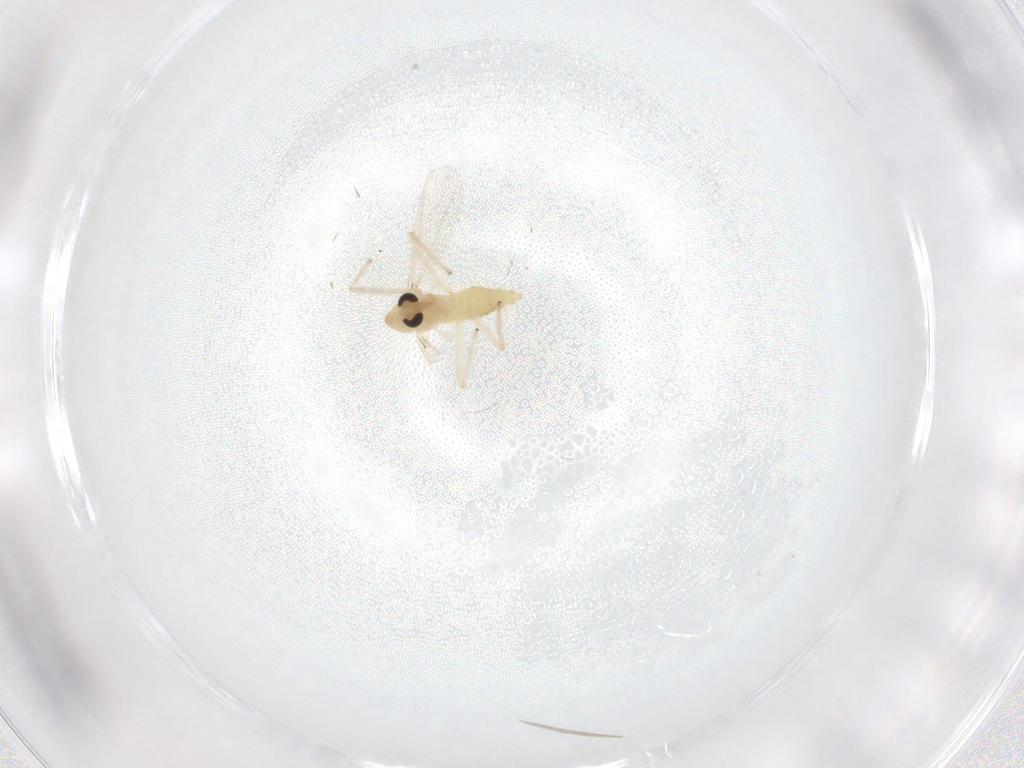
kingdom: Animalia
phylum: Arthropoda
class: Insecta
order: Diptera
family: Chironomidae
